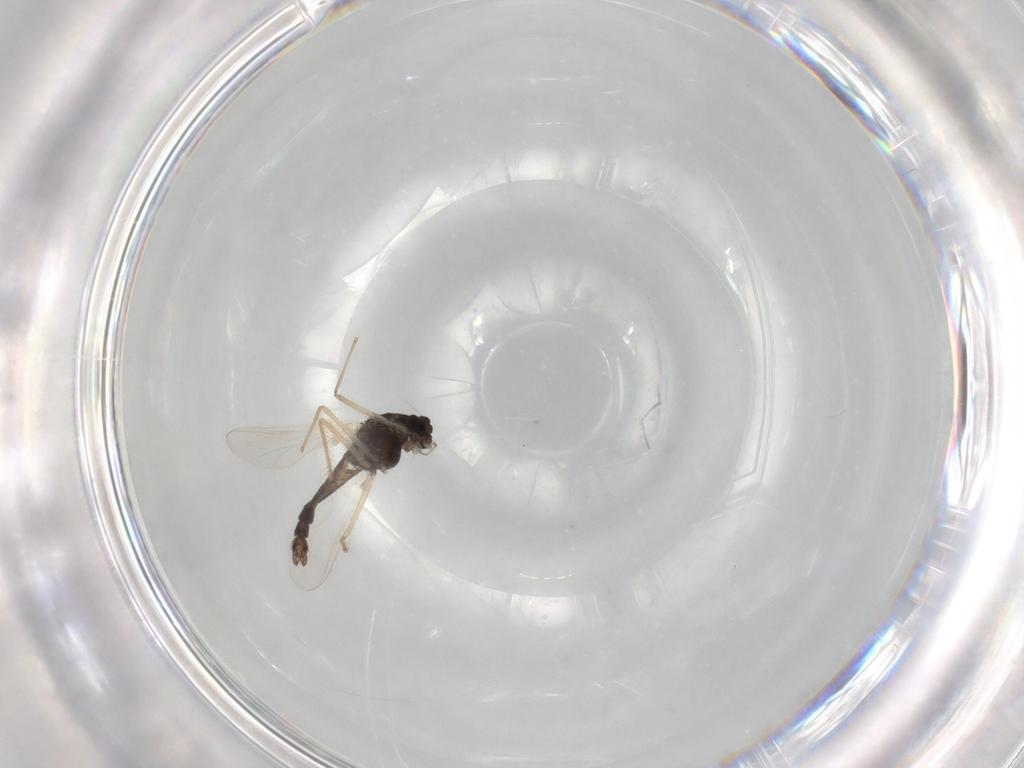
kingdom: Animalia
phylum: Arthropoda
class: Insecta
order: Diptera
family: Chironomidae
